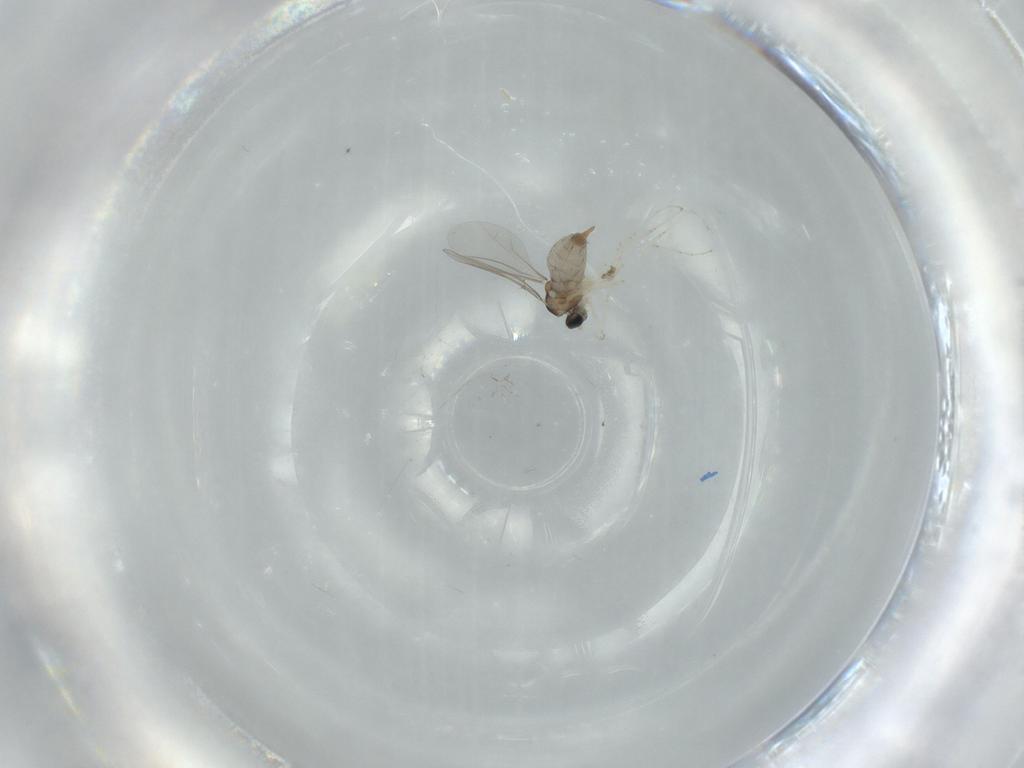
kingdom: Animalia
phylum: Arthropoda
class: Insecta
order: Diptera
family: Cecidomyiidae
